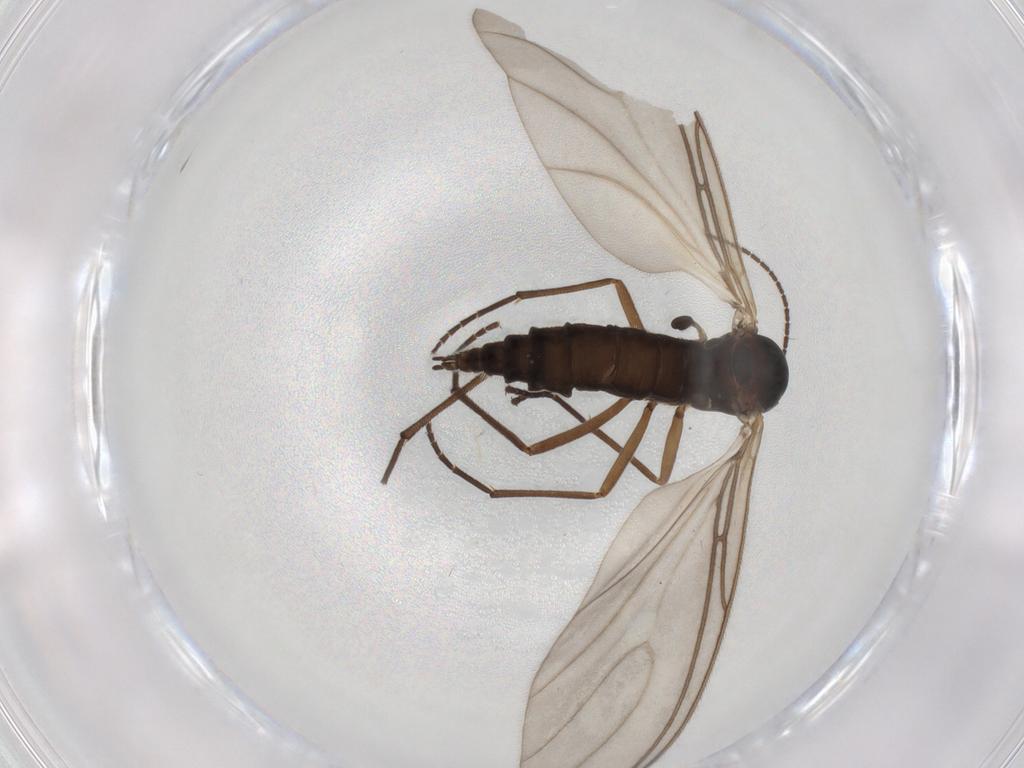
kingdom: Animalia
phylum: Arthropoda
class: Insecta
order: Diptera
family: Sciaridae
